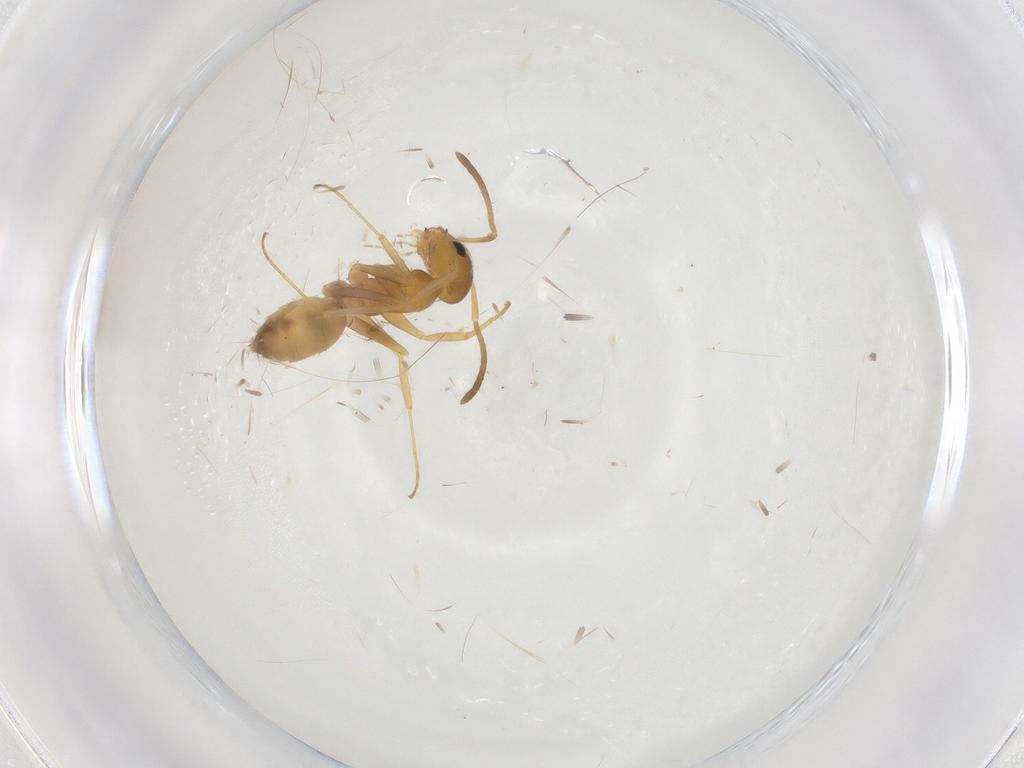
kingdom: Animalia
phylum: Arthropoda
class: Insecta
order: Hymenoptera
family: Formicidae
